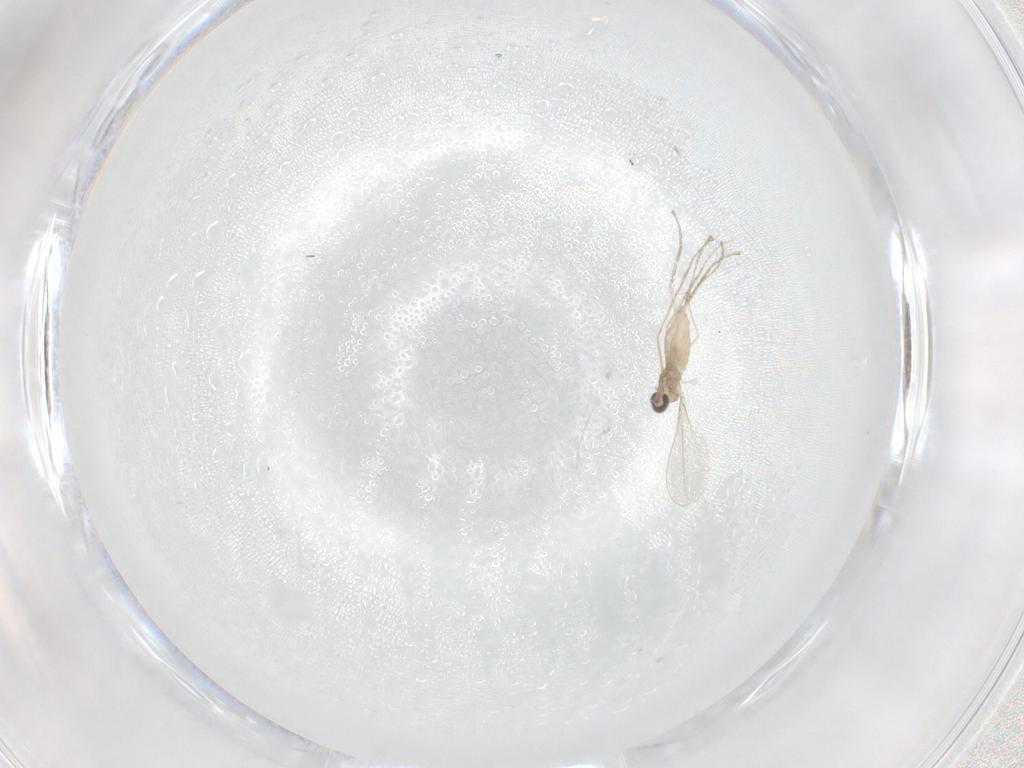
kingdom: Animalia
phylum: Arthropoda
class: Insecta
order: Diptera
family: Cecidomyiidae
